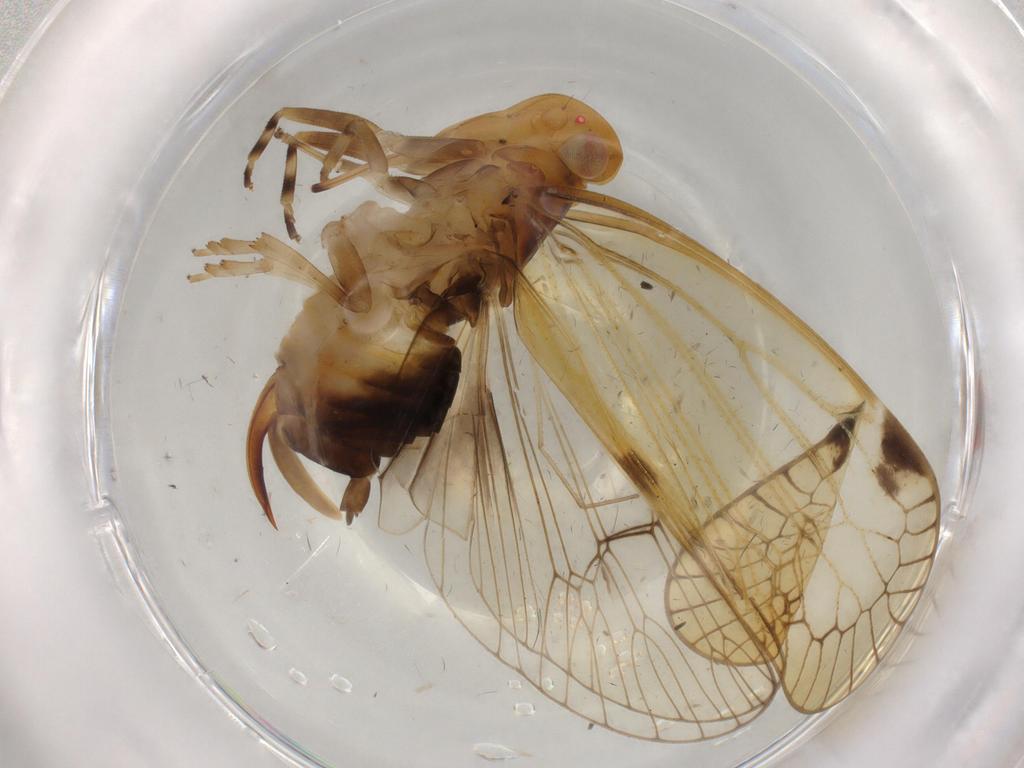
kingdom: Animalia
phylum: Arthropoda
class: Insecta
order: Hemiptera
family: Cixiidae
